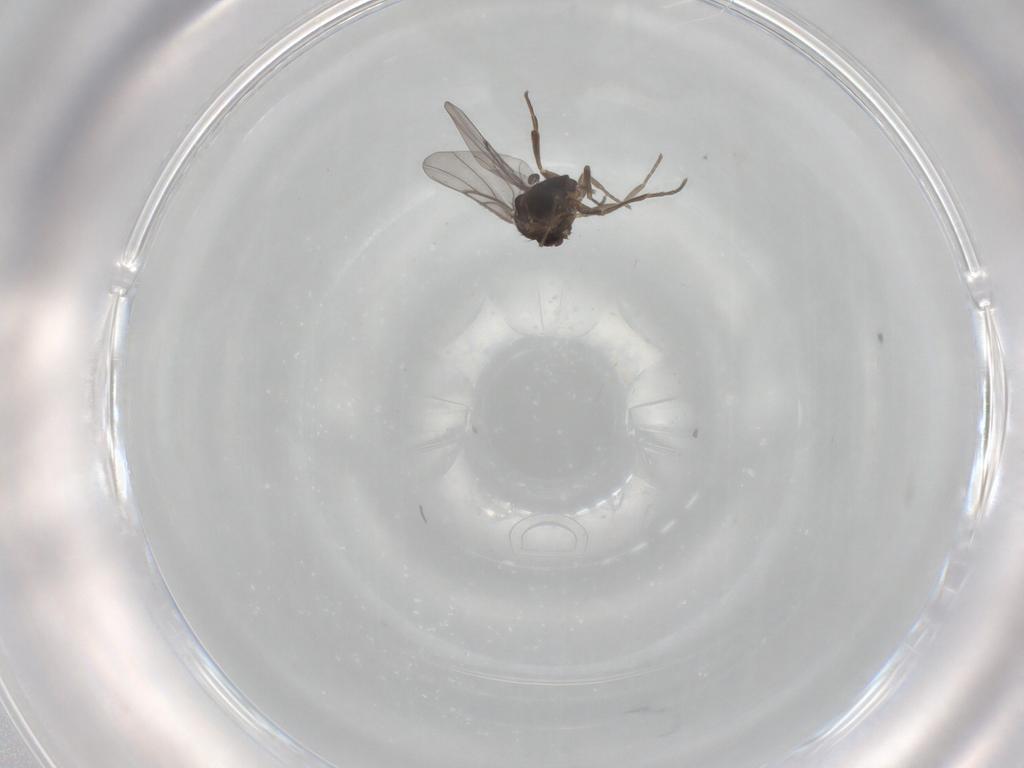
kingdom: Animalia
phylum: Arthropoda
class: Insecta
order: Diptera
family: Phoridae
